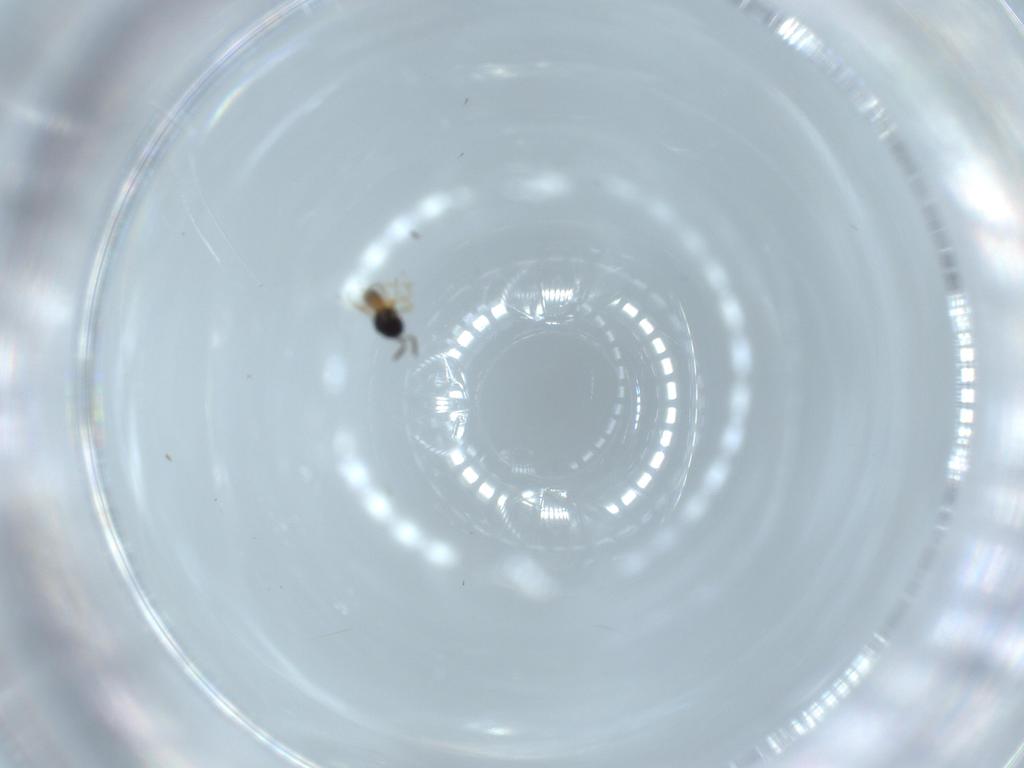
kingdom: Animalia
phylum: Arthropoda
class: Insecta
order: Hymenoptera
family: Scelionidae
